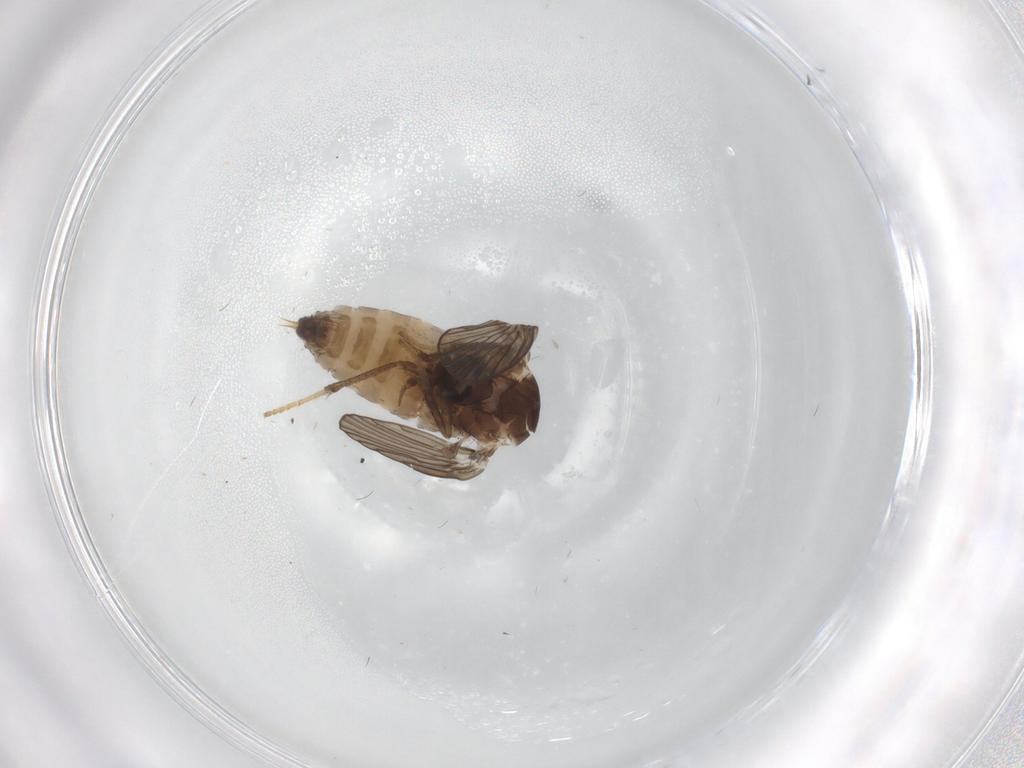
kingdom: Animalia
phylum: Arthropoda
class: Insecta
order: Diptera
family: Psychodidae
